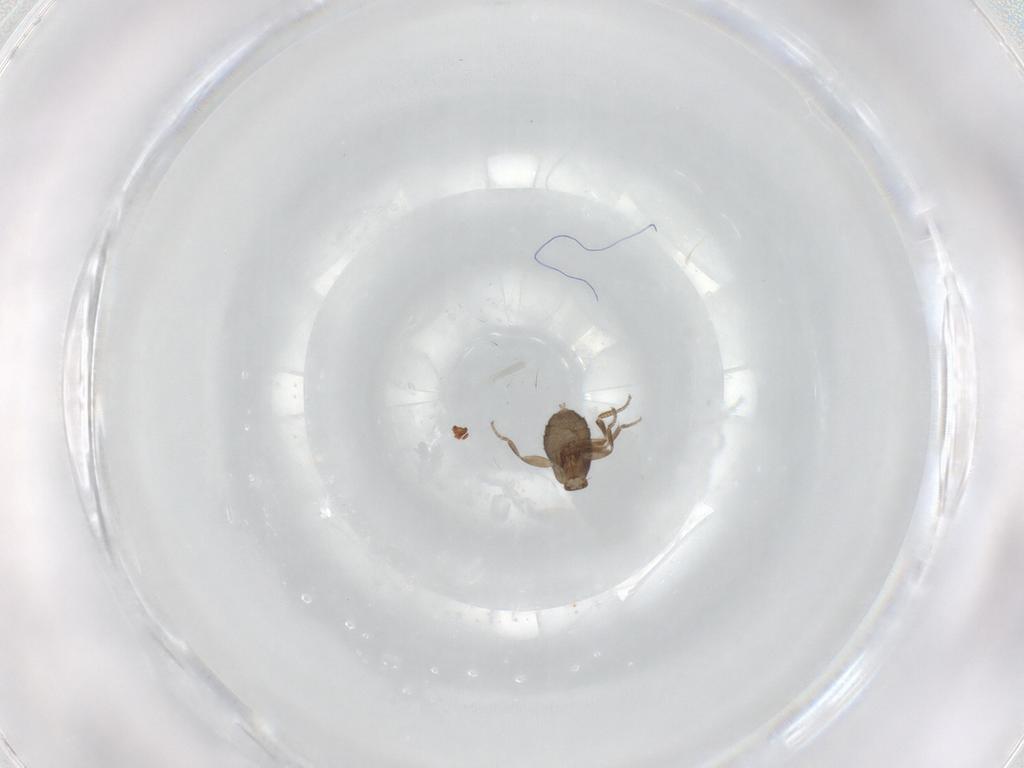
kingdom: Animalia
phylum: Arthropoda
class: Insecta
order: Diptera
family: Phoridae
